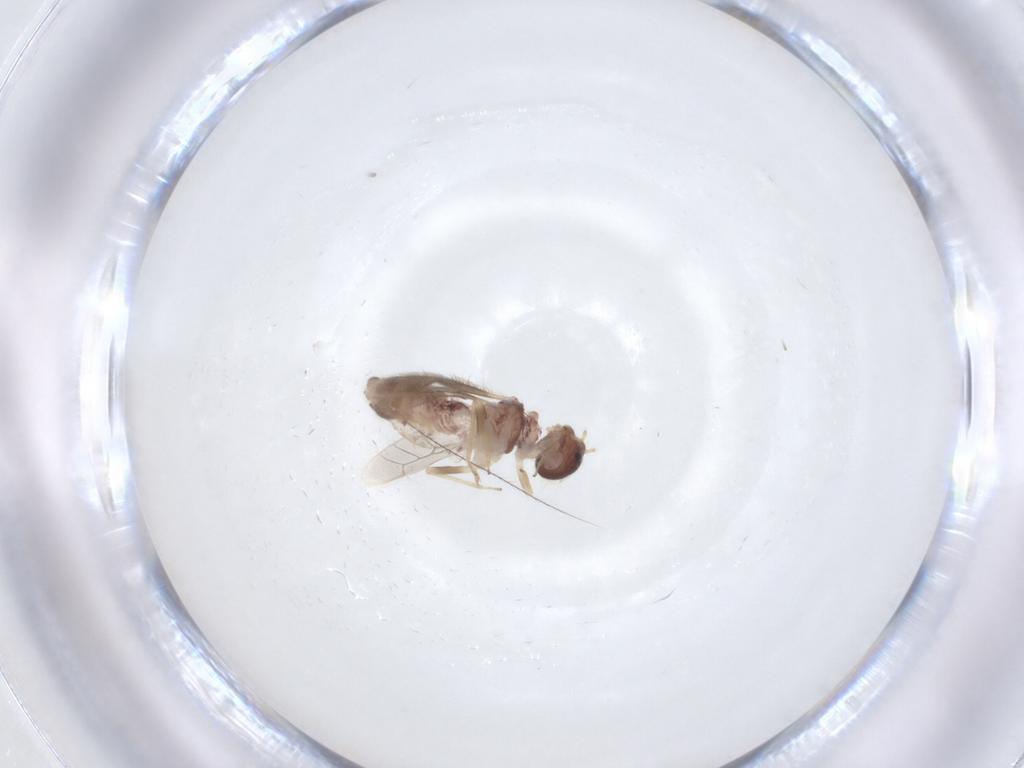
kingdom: Animalia
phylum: Arthropoda
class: Insecta
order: Psocodea
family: Archipsocidae
